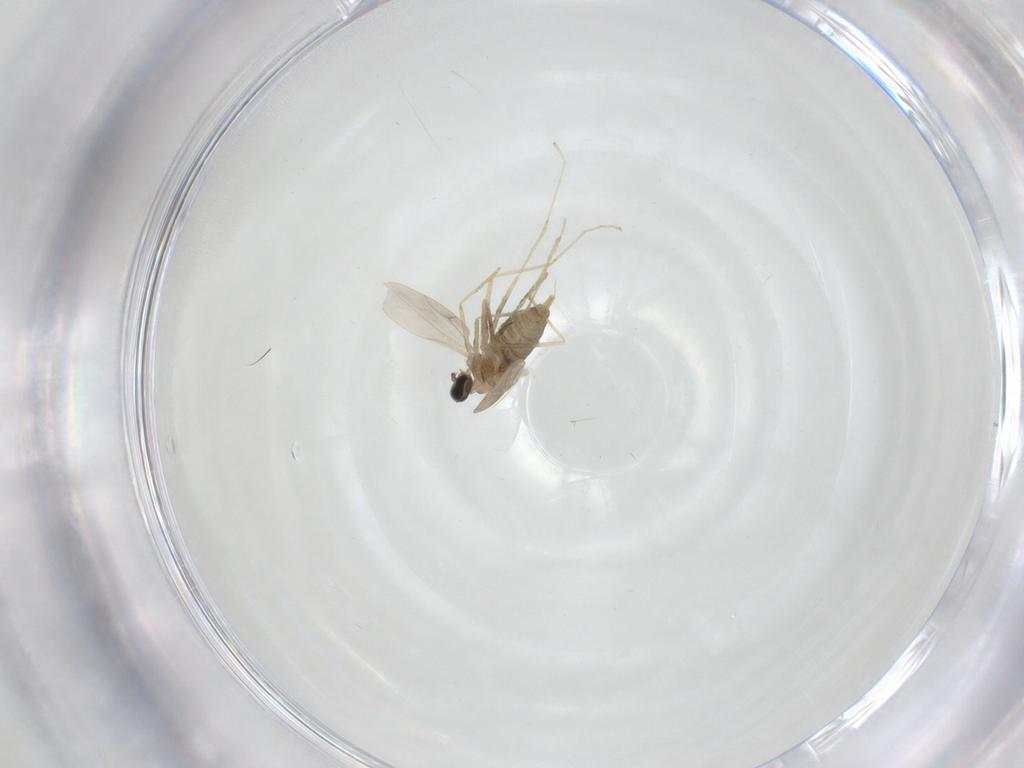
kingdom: Animalia
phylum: Arthropoda
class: Insecta
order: Diptera
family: Cecidomyiidae
